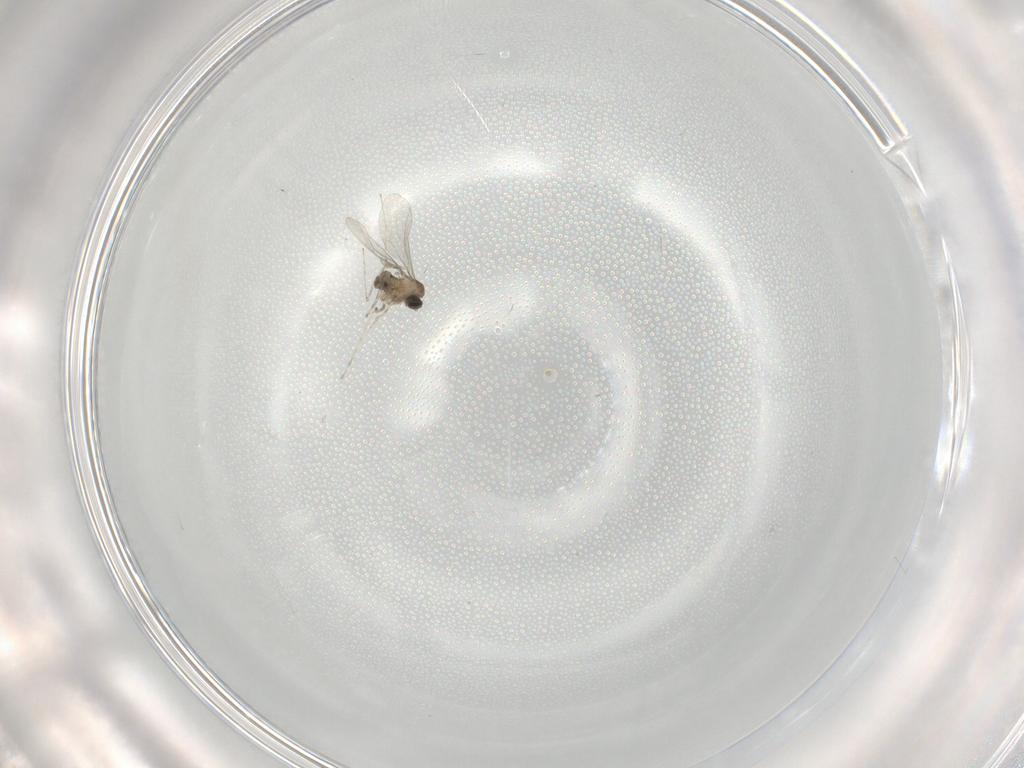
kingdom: Animalia
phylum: Arthropoda
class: Insecta
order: Diptera
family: Cecidomyiidae
